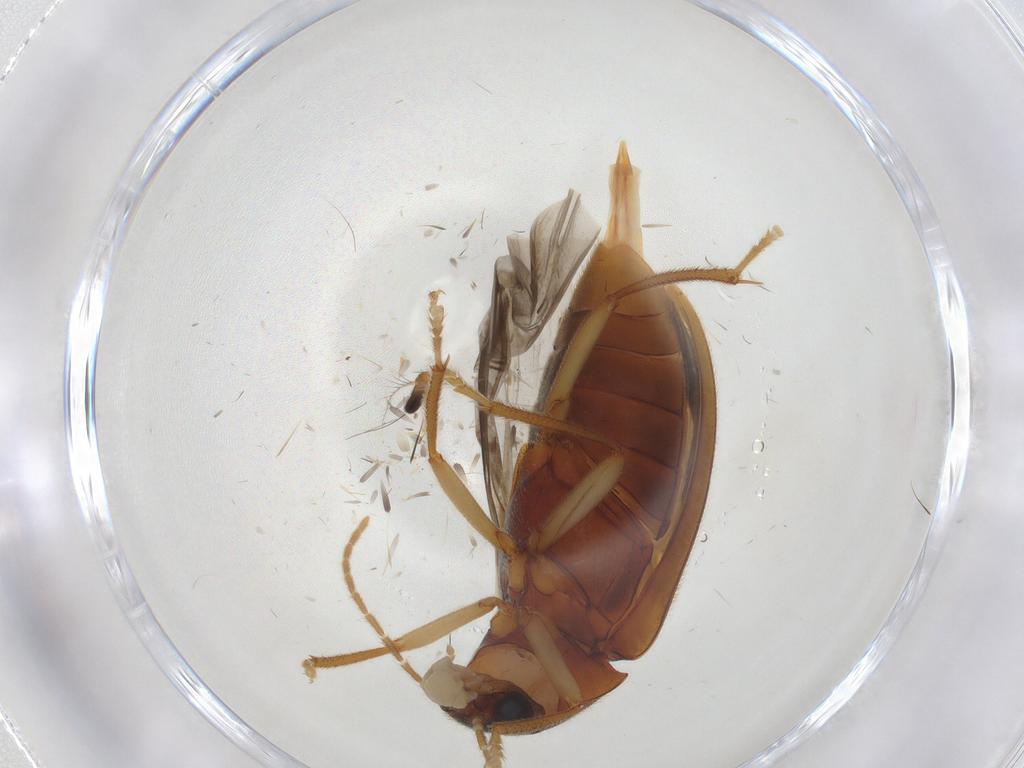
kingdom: Animalia
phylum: Arthropoda
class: Insecta
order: Coleoptera
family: Ptilodactylidae
